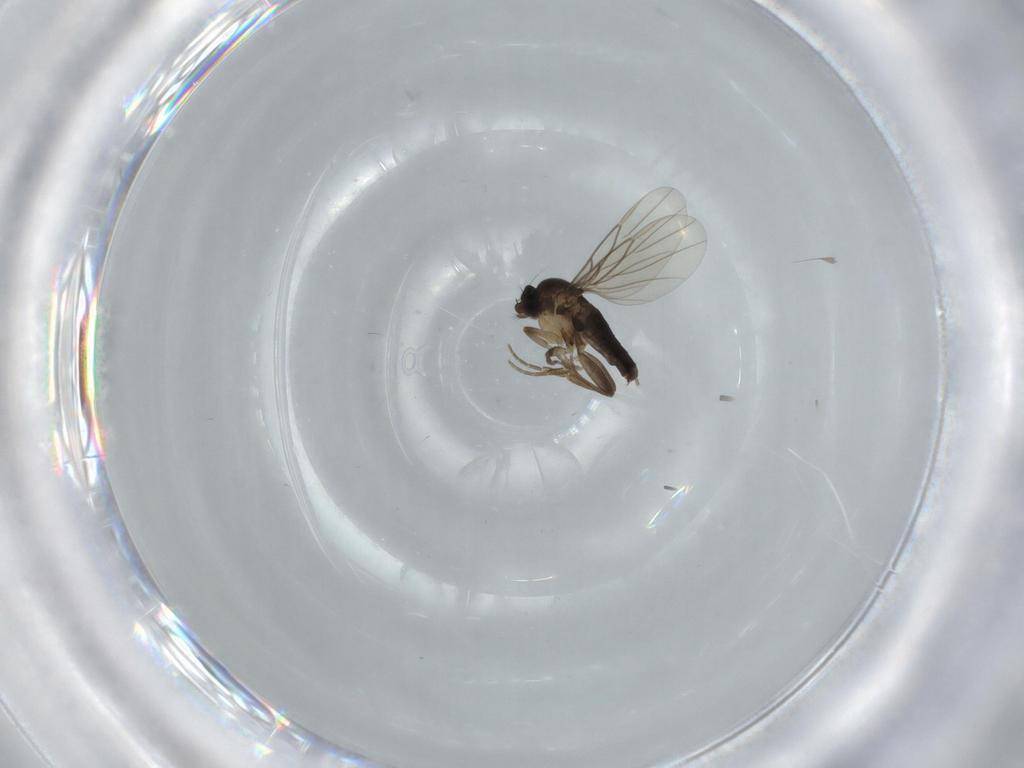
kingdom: Animalia
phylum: Arthropoda
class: Insecta
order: Diptera
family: Phoridae
